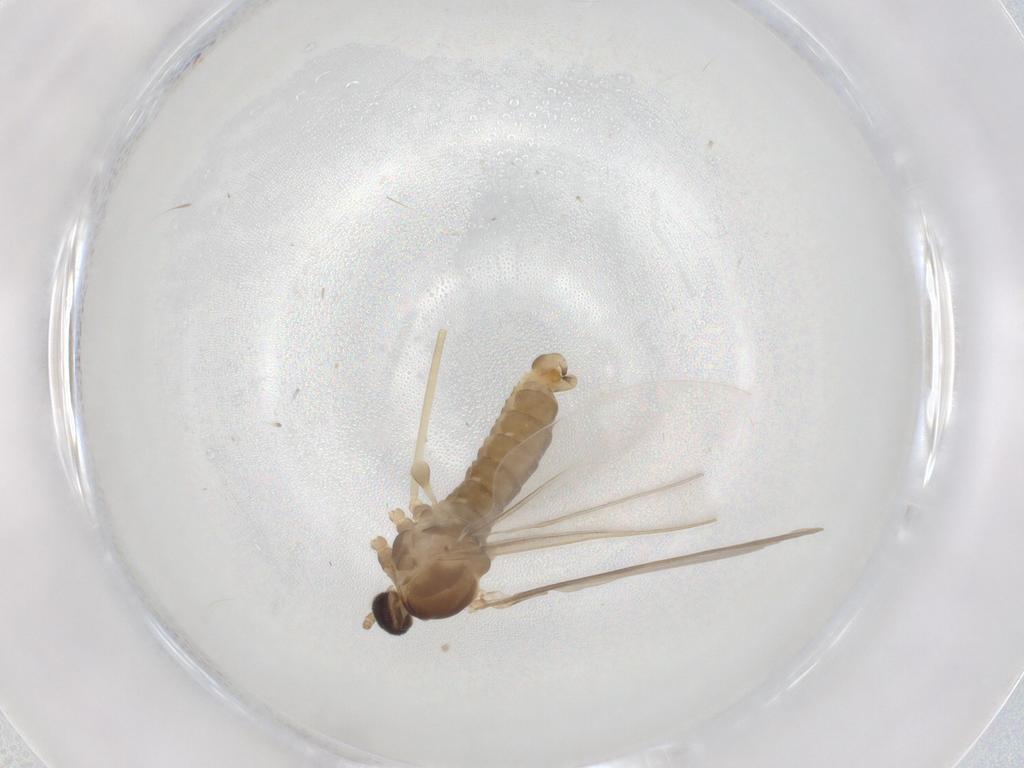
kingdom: Animalia
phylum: Arthropoda
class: Insecta
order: Diptera
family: Cecidomyiidae
